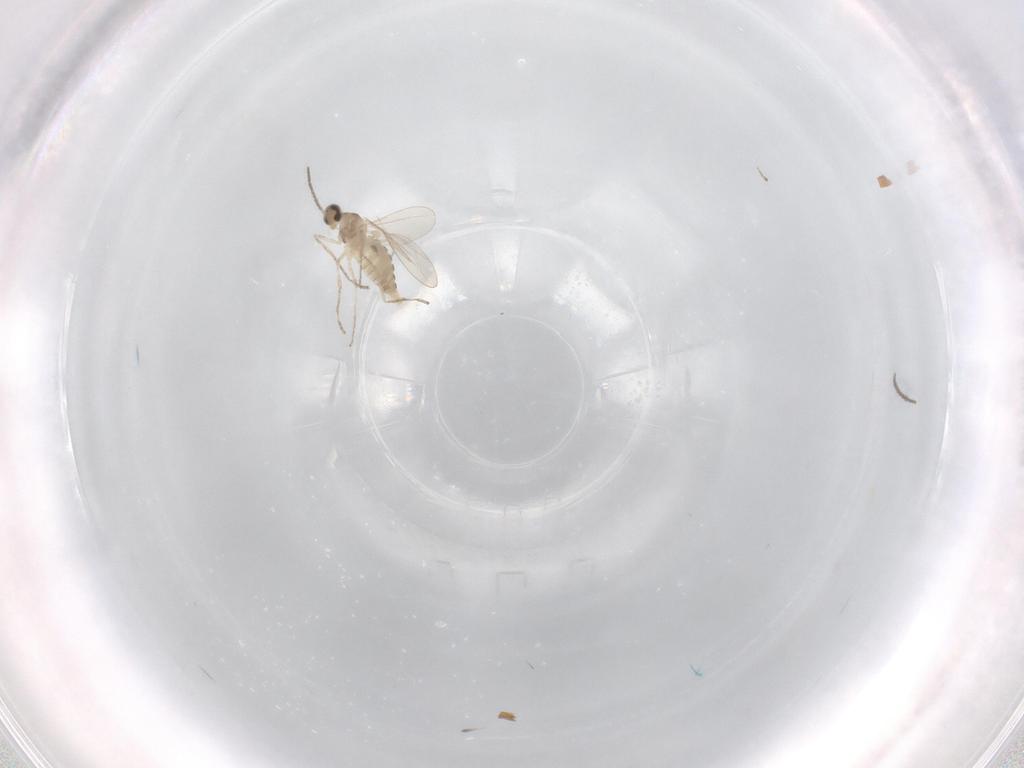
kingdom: Animalia
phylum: Arthropoda
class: Insecta
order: Diptera
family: Cecidomyiidae
